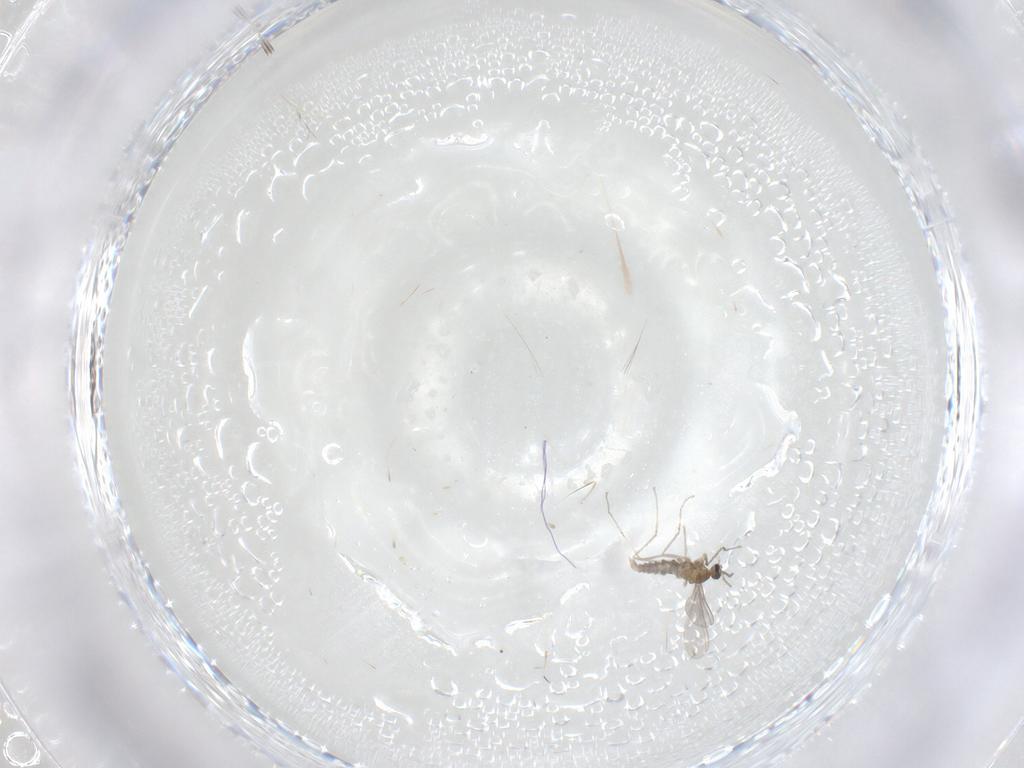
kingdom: Animalia
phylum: Arthropoda
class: Insecta
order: Diptera
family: Cecidomyiidae
